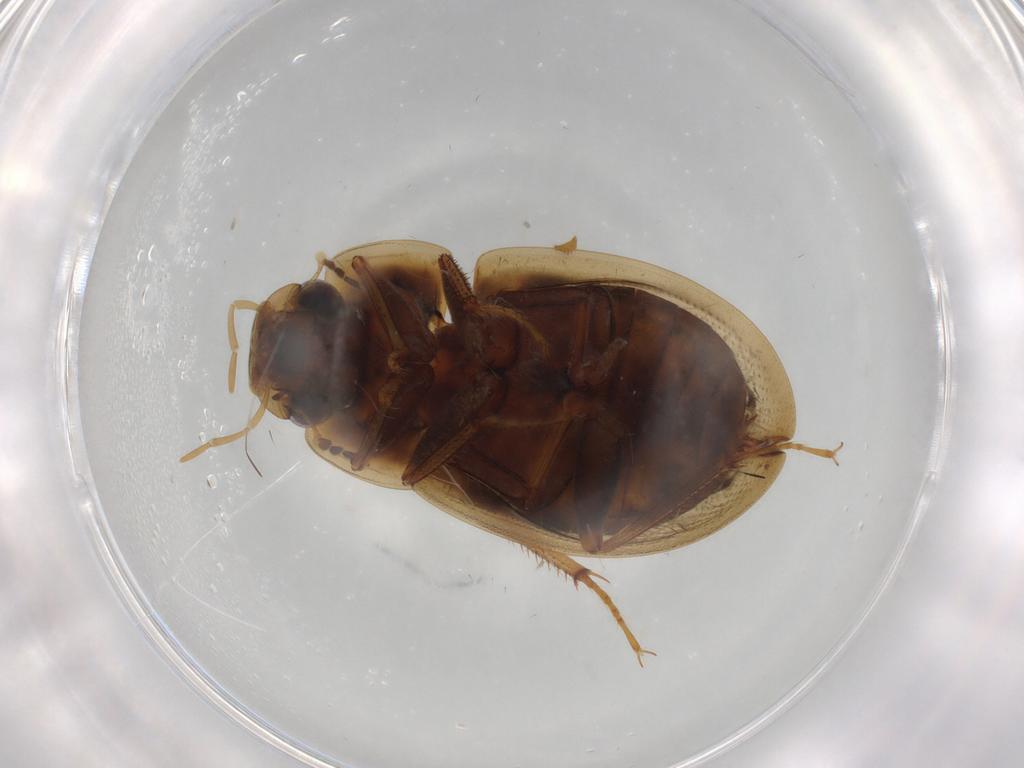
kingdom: Animalia
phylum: Arthropoda
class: Insecta
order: Coleoptera
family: Hydrophilidae
